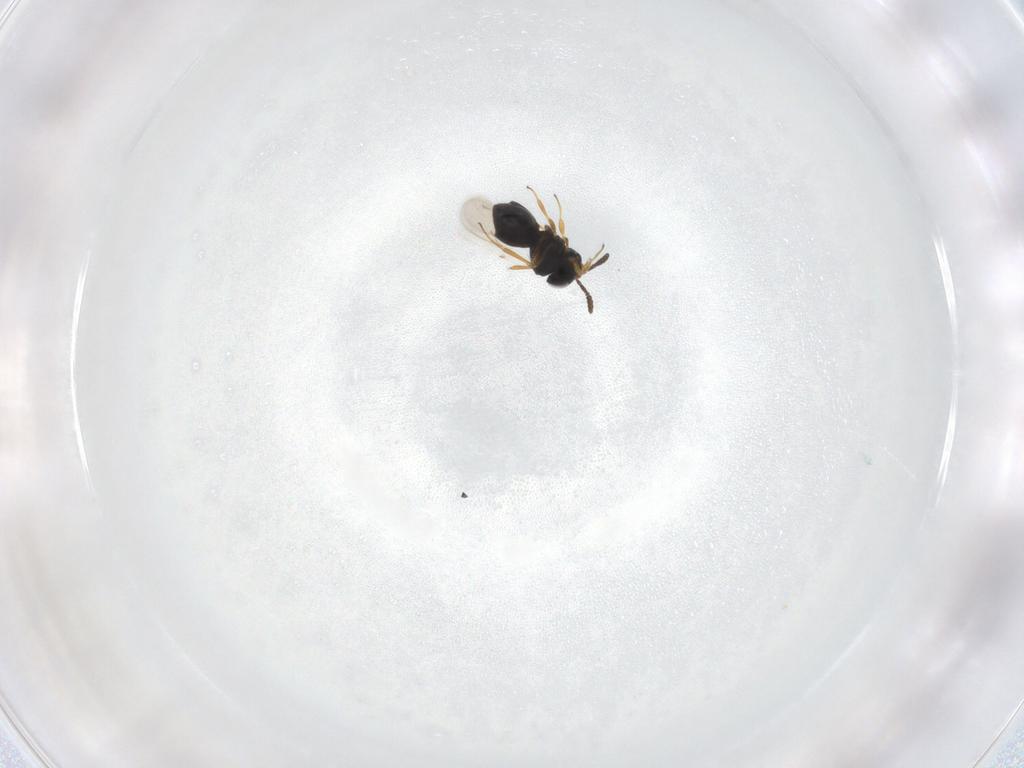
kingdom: Animalia
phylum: Arthropoda
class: Insecta
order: Hymenoptera
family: Scelionidae
